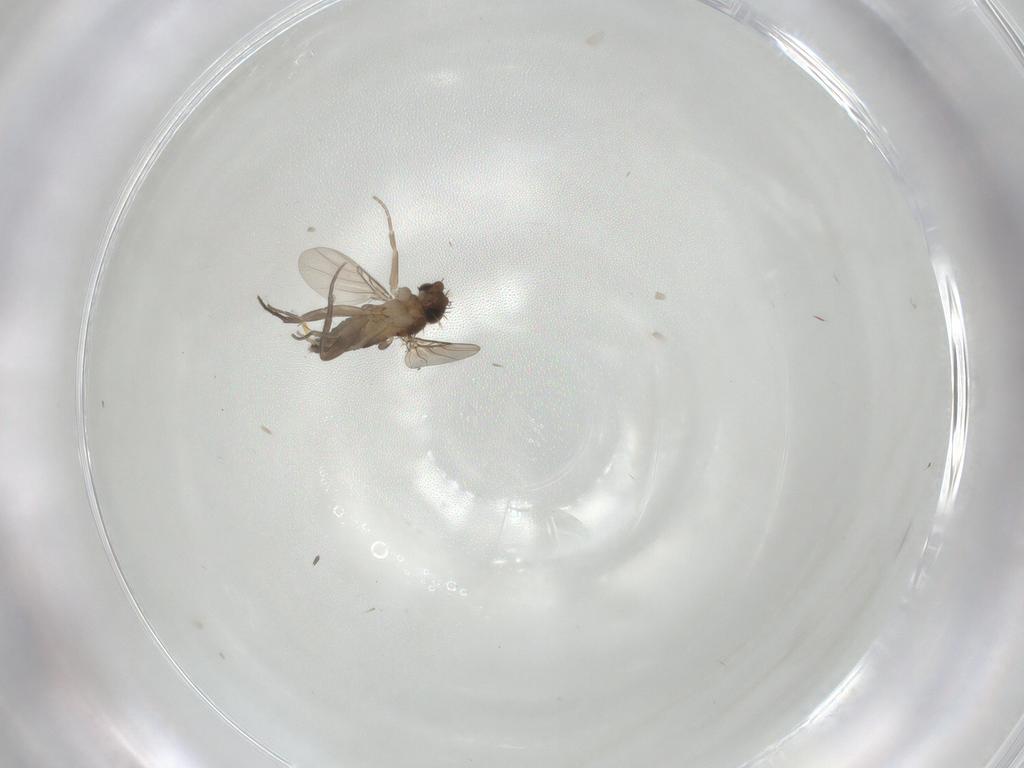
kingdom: Animalia
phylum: Arthropoda
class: Insecta
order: Diptera
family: Phoridae
